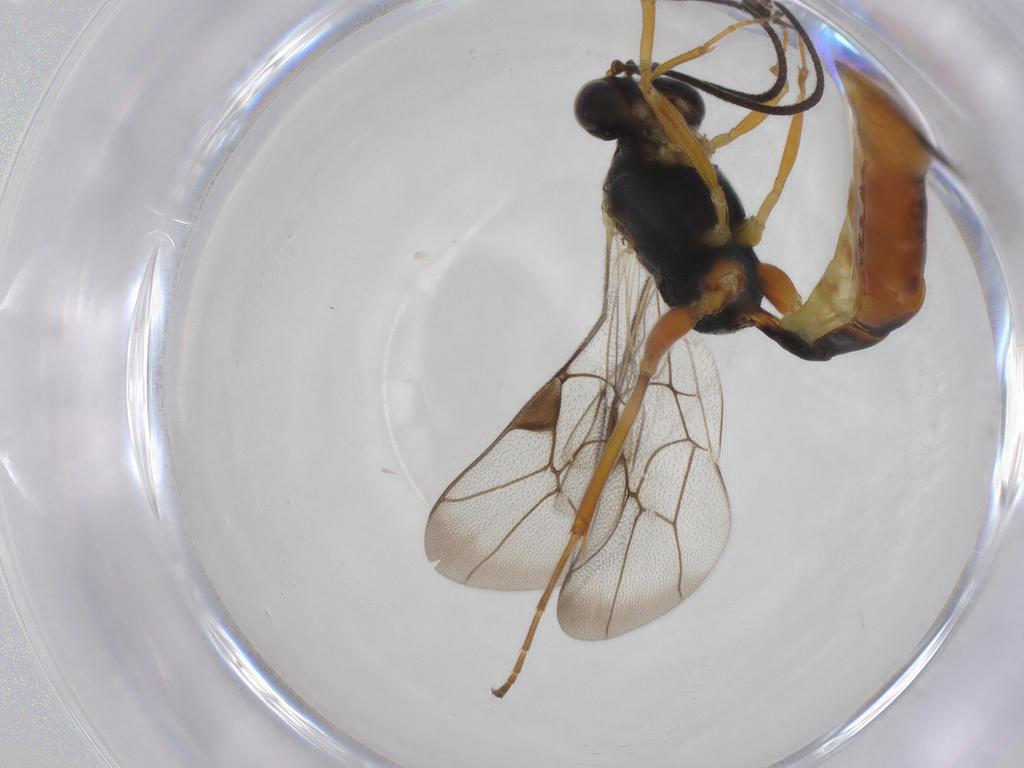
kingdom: Animalia
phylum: Arthropoda
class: Insecta
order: Hymenoptera
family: Ichneumonidae
